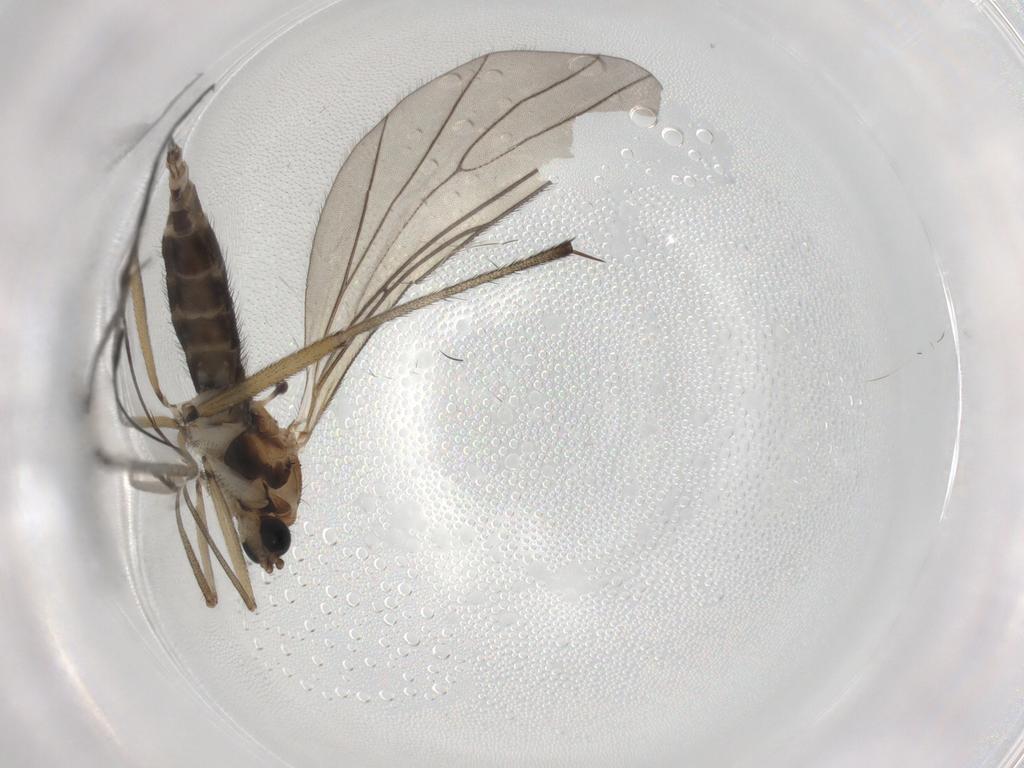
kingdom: Animalia
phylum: Arthropoda
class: Insecta
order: Diptera
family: Sciaridae
